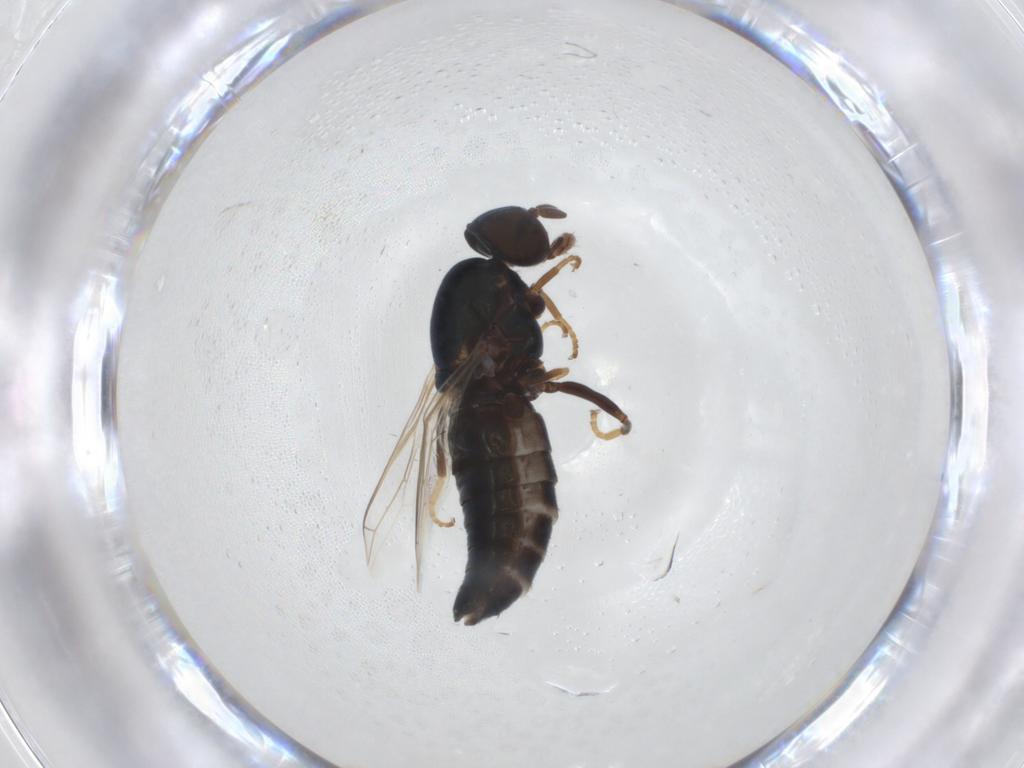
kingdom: Animalia
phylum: Arthropoda
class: Insecta
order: Diptera
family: Scenopinidae
